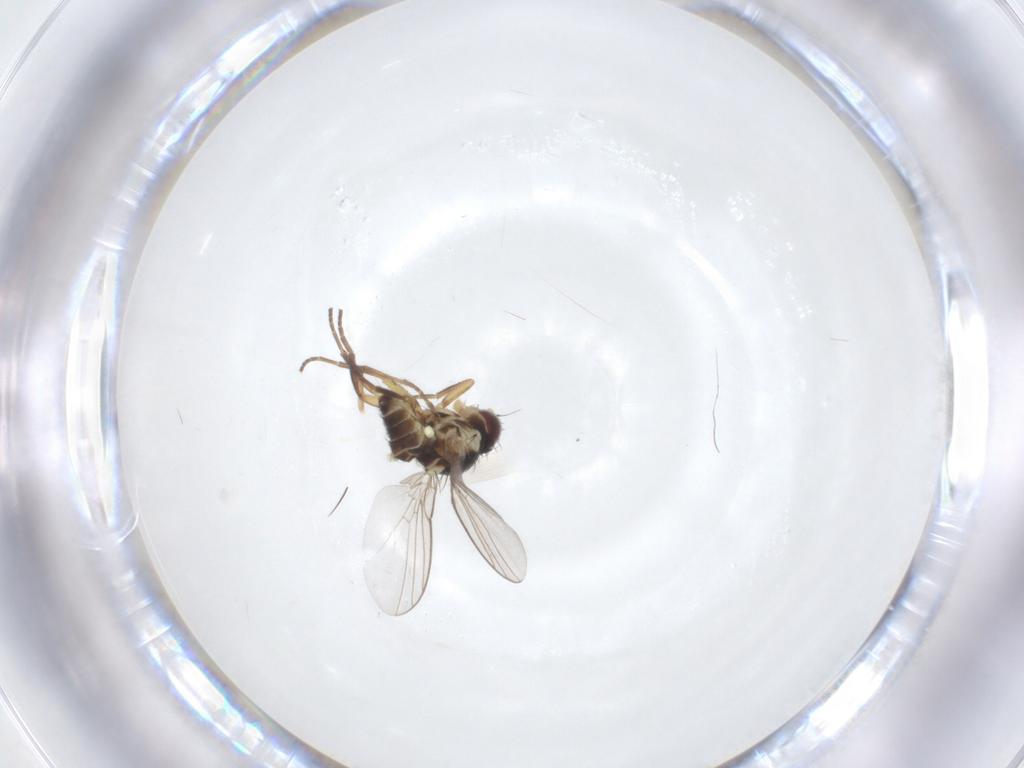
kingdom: Animalia
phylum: Arthropoda
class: Insecta
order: Diptera
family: Agromyzidae
